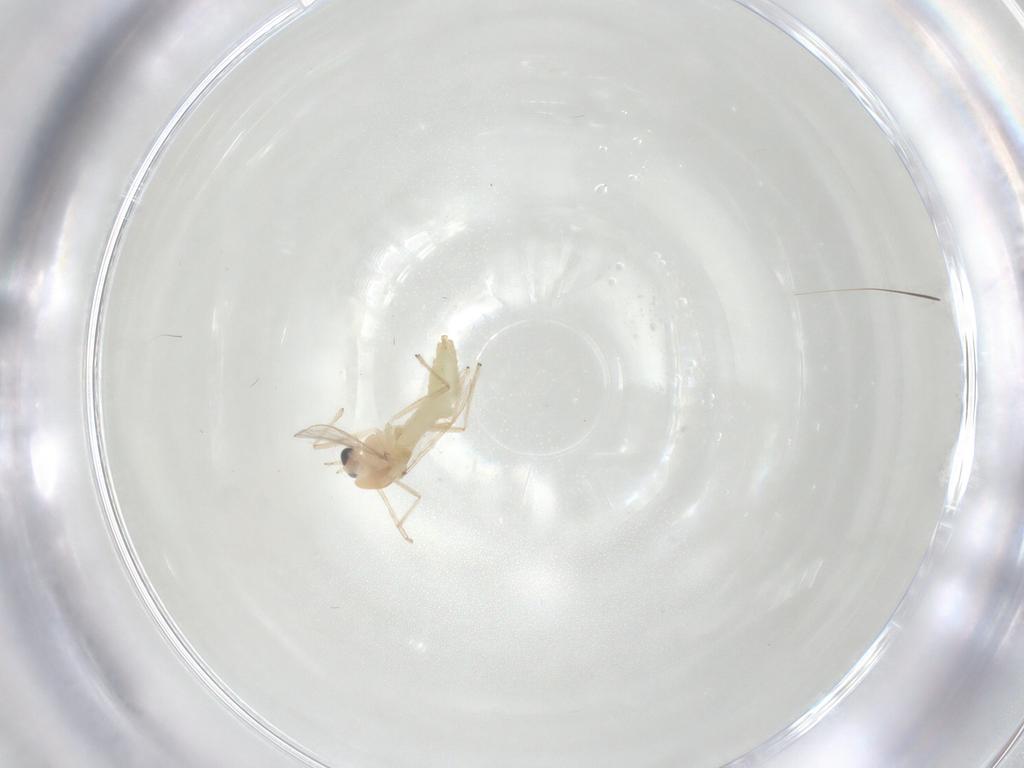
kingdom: Animalia
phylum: Arthropoda
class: Insecta
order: Diptera
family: Chironomidae
